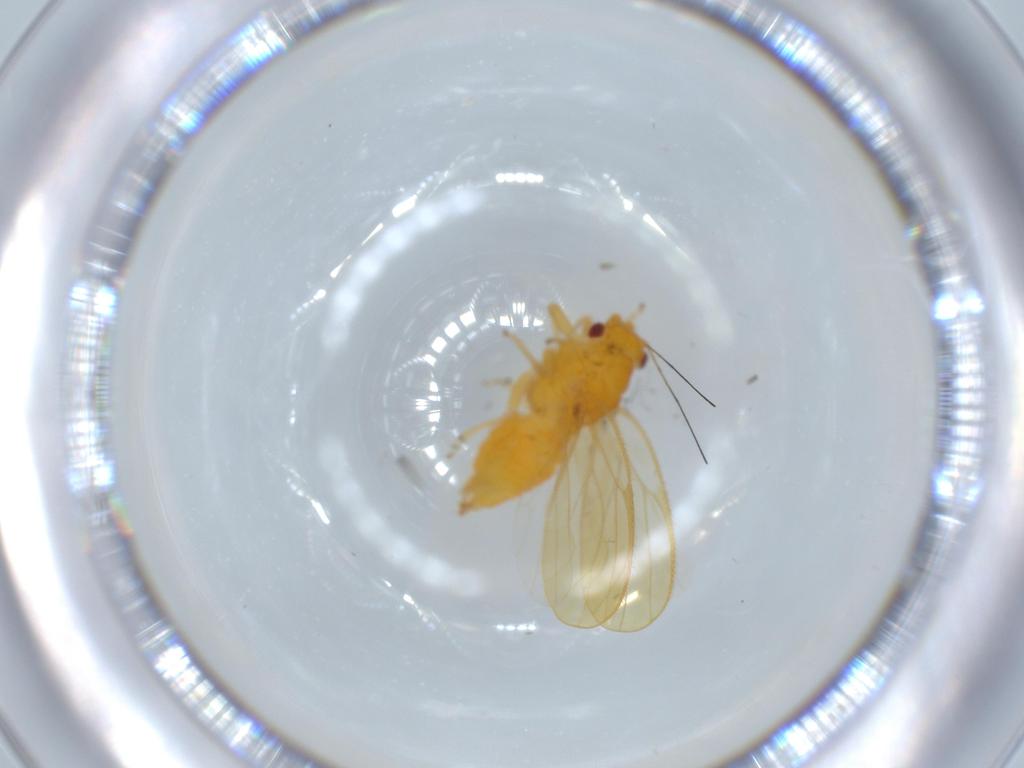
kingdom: Animalia
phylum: Arthropoda
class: Insecta
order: Hemiptera
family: Psyllidae
